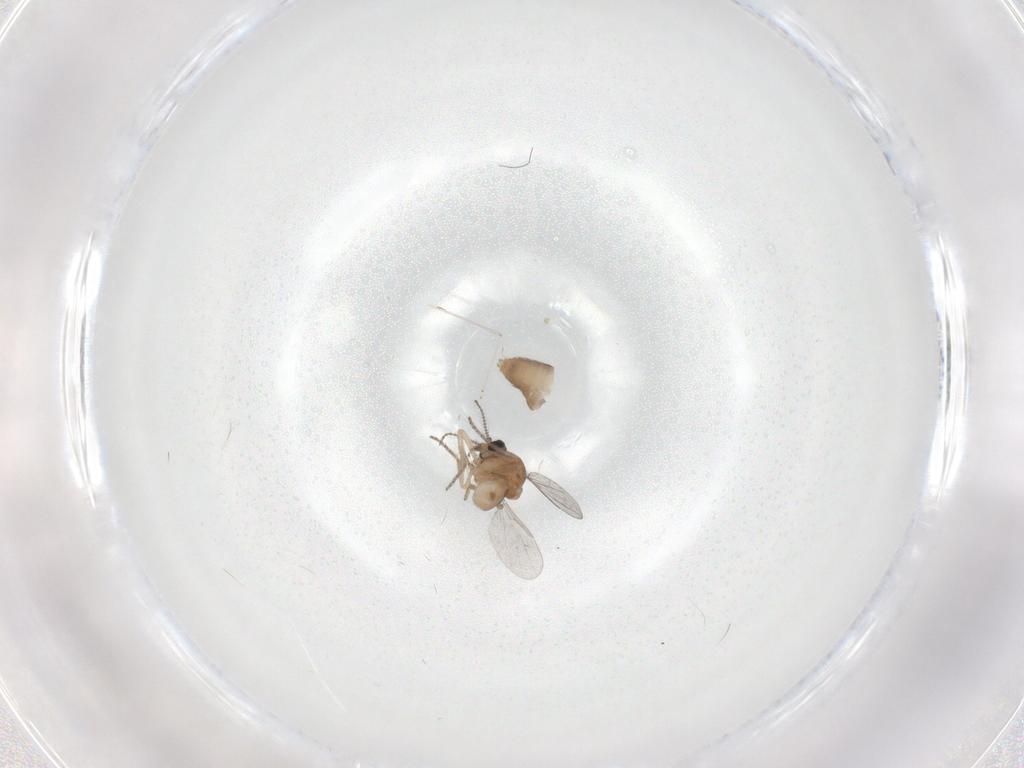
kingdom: Animalia
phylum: Arthropoda
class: Insecta
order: Diptera
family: Ceratopogonidae
